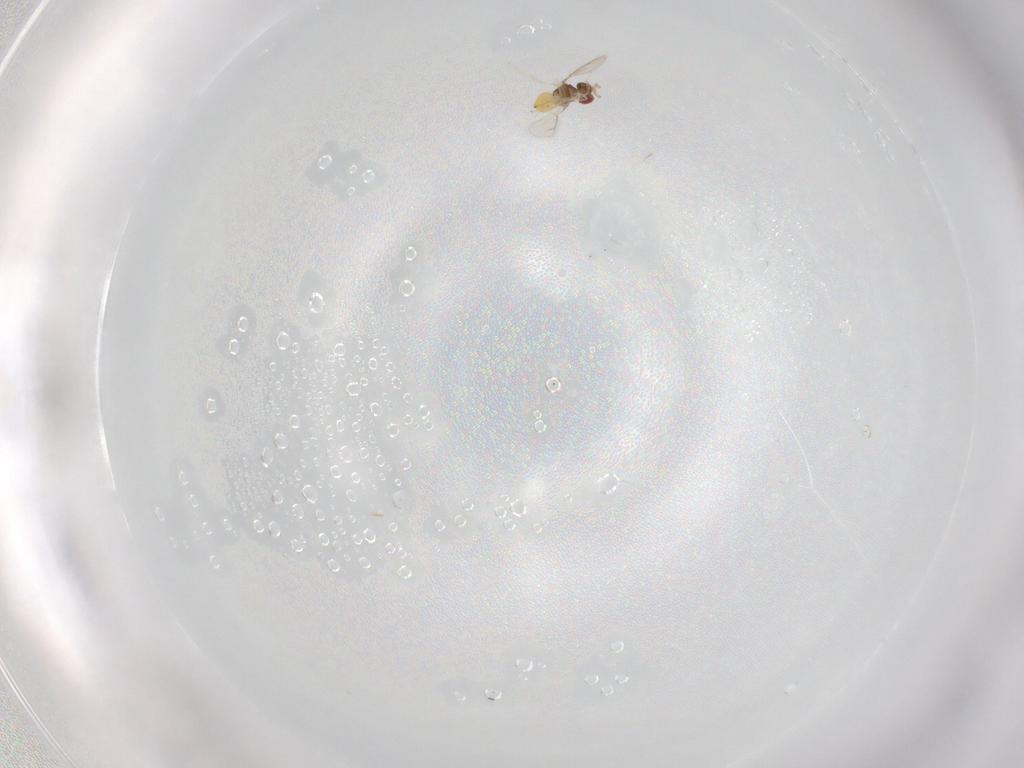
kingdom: Animalia
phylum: Arthropoda
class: Insecta
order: Hymenoptera
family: Eulophidae
